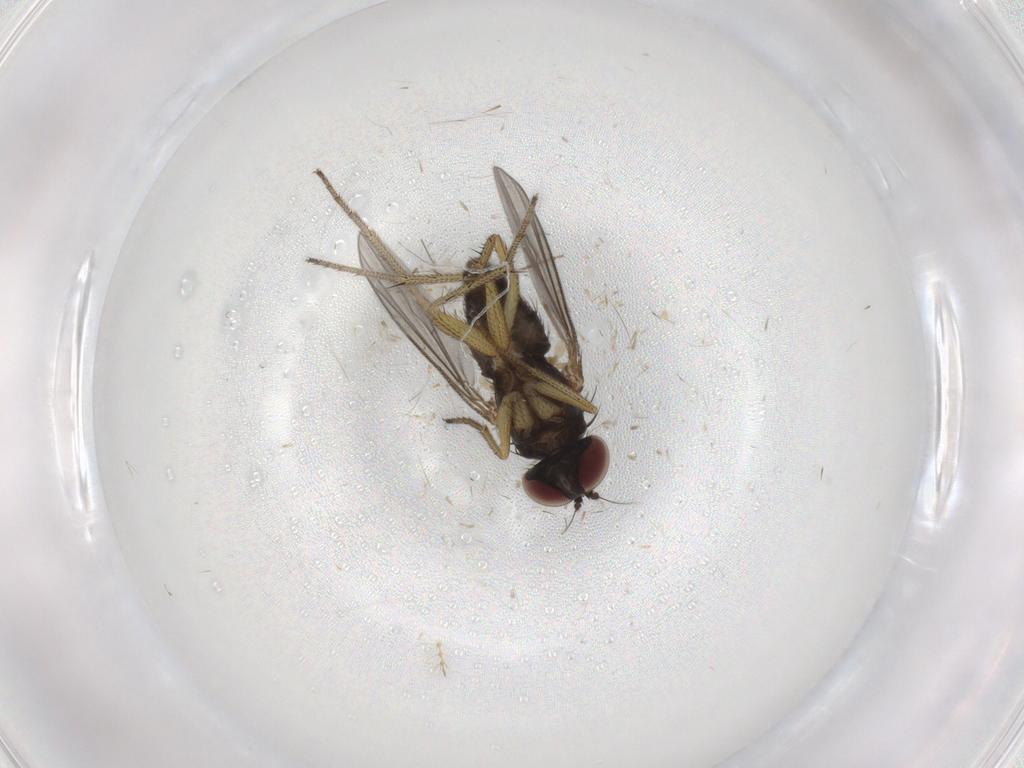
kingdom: Animalia
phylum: Arthropoda
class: Insecta
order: Diptera
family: Chironomidae
